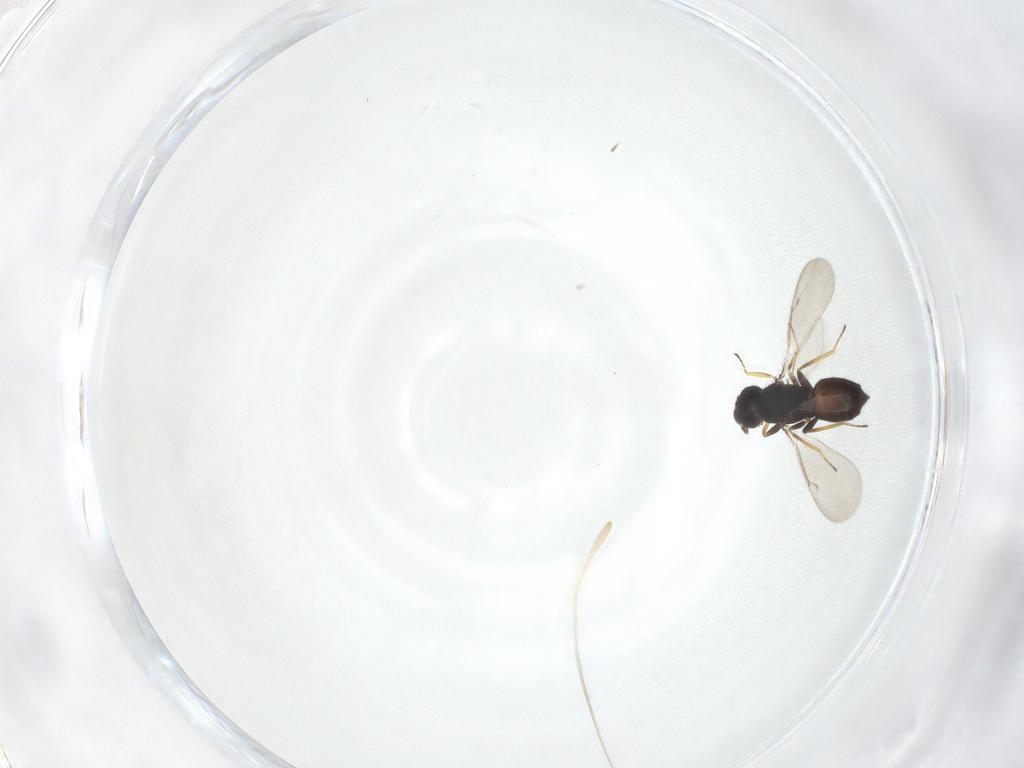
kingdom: Animalia
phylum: Arthropoda
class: Insecta
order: Hymenoptera
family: Eulophidae
